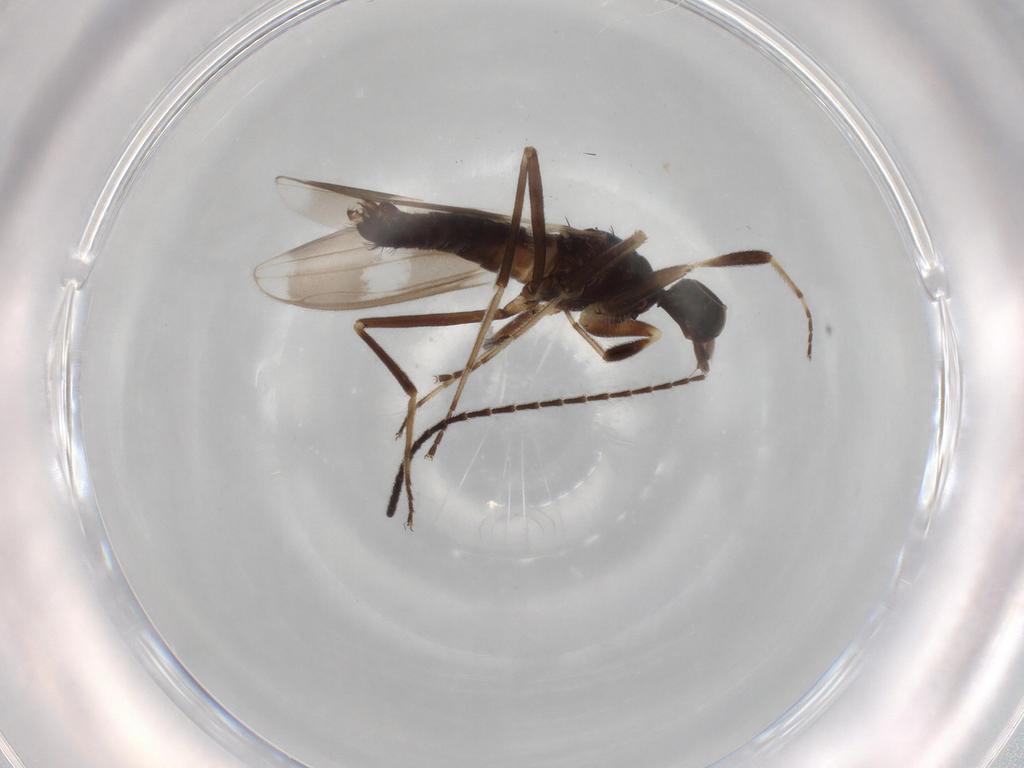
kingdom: Animalia
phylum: Arthropoda
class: Insecta
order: Diptera
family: Hybotidae
